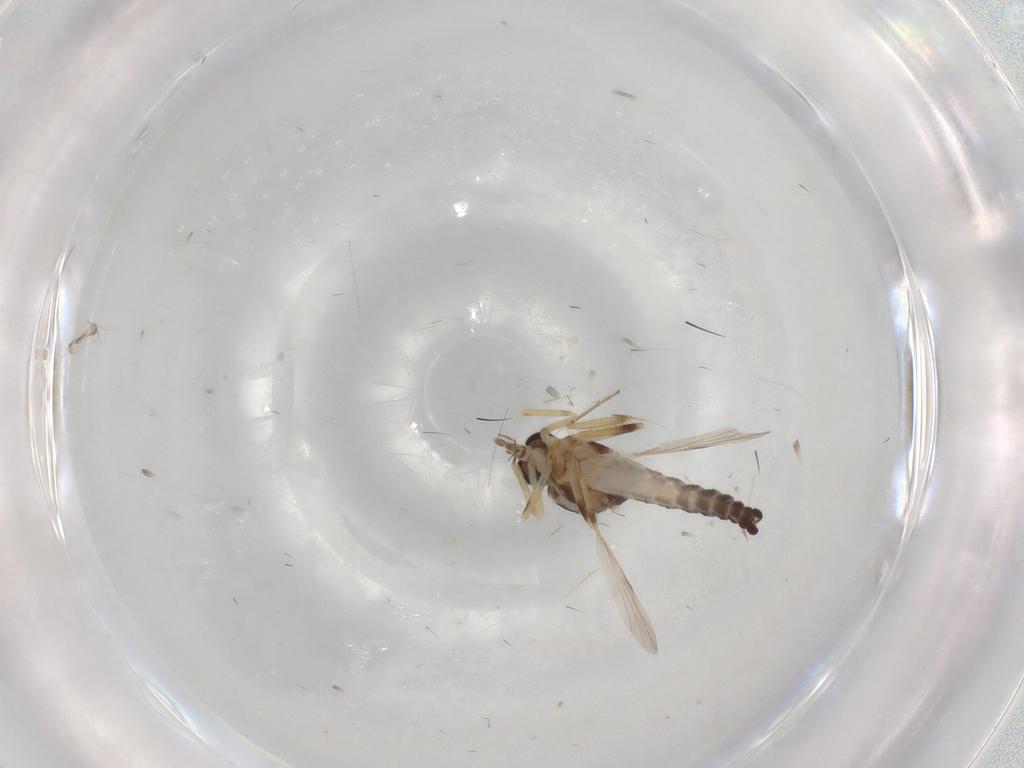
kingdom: Animalia
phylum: Arthropoda
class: Insecta
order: Diptera
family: Ceratopogonidae
